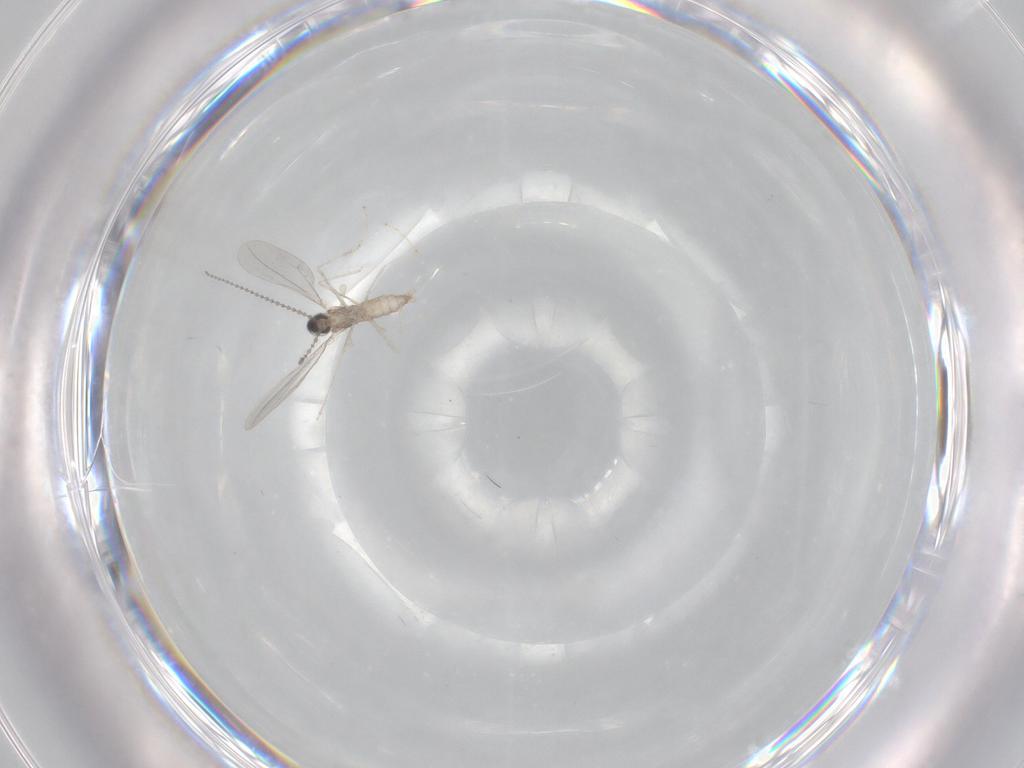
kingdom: Animalia
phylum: Arthropoda
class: Insecta
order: Diptera
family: Cecidomyiidae
